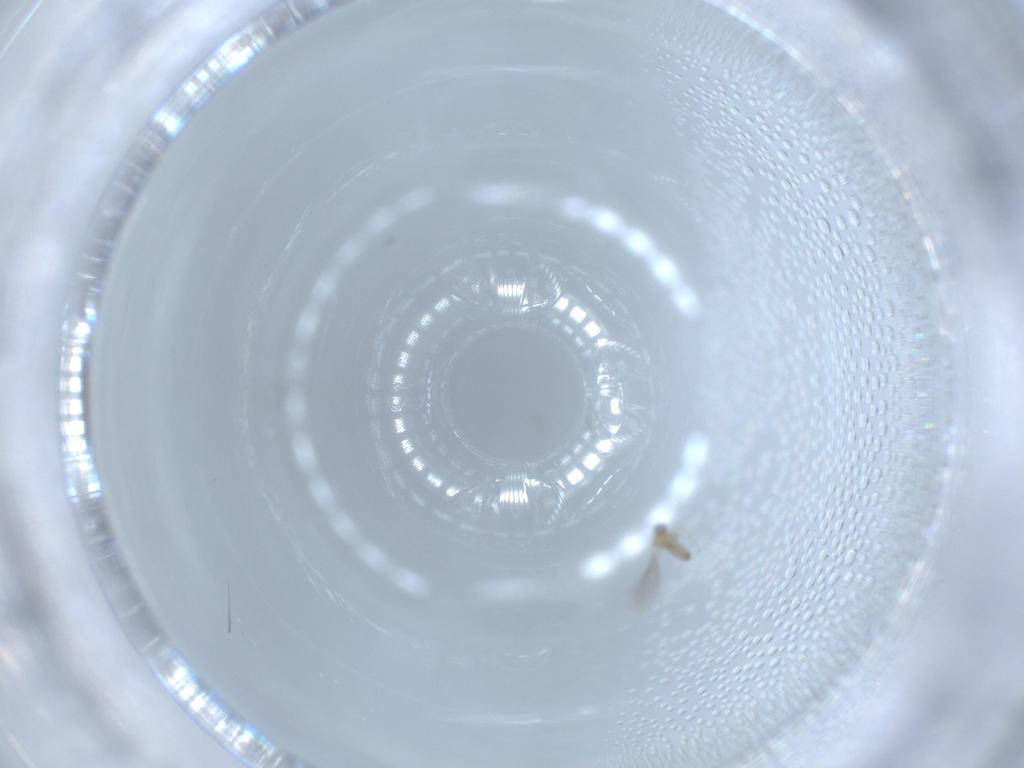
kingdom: Animalia
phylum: Arthropoda
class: Insecta
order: Diptera
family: Cecidomyiidae
